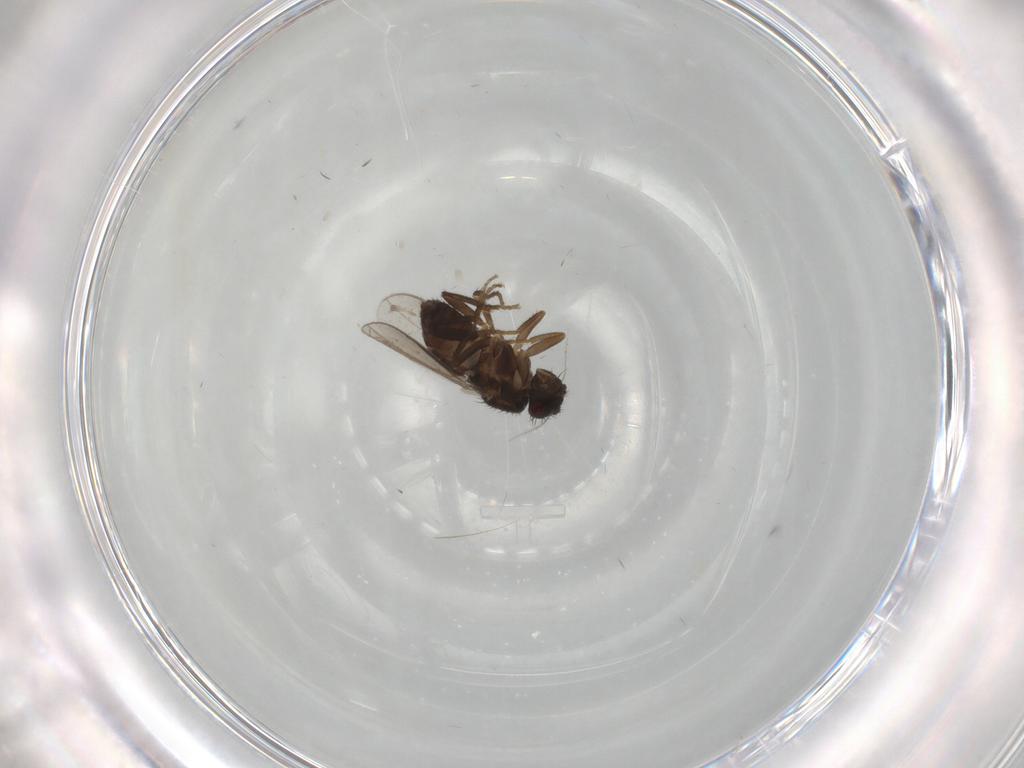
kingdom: Animalia
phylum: Arthropoda
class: Insecta
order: Diptera
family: Sphaeroceridae
